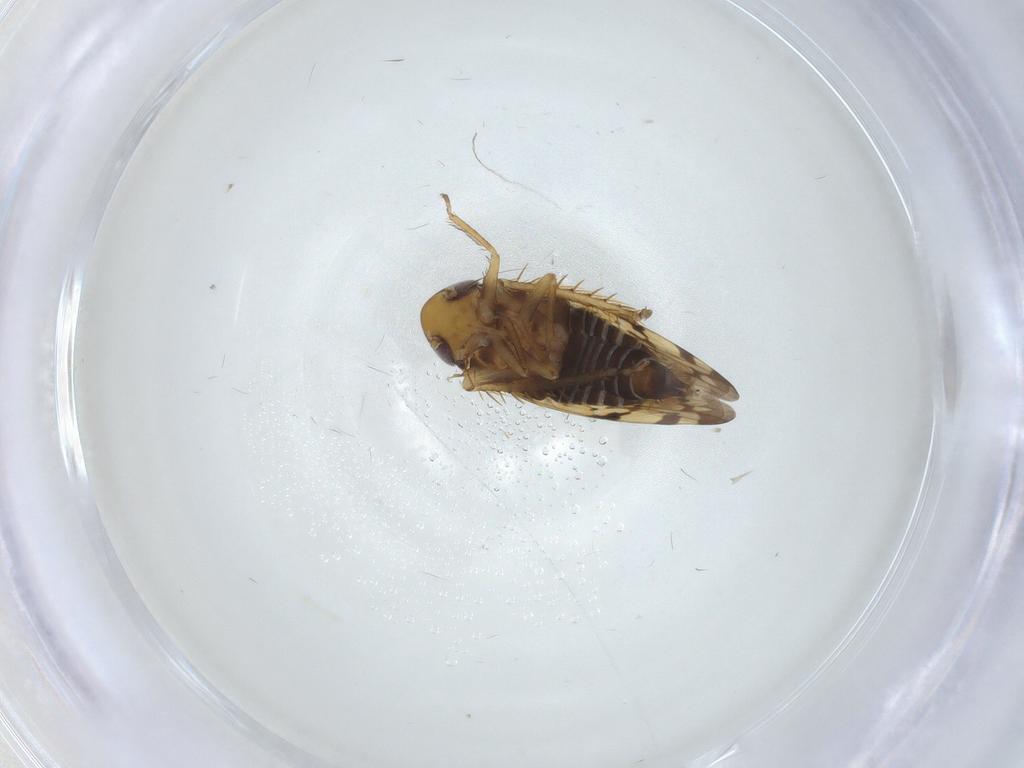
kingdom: Animalia
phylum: Arthropoda
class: Insecta
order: Hemiptera
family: Cicadellidae
